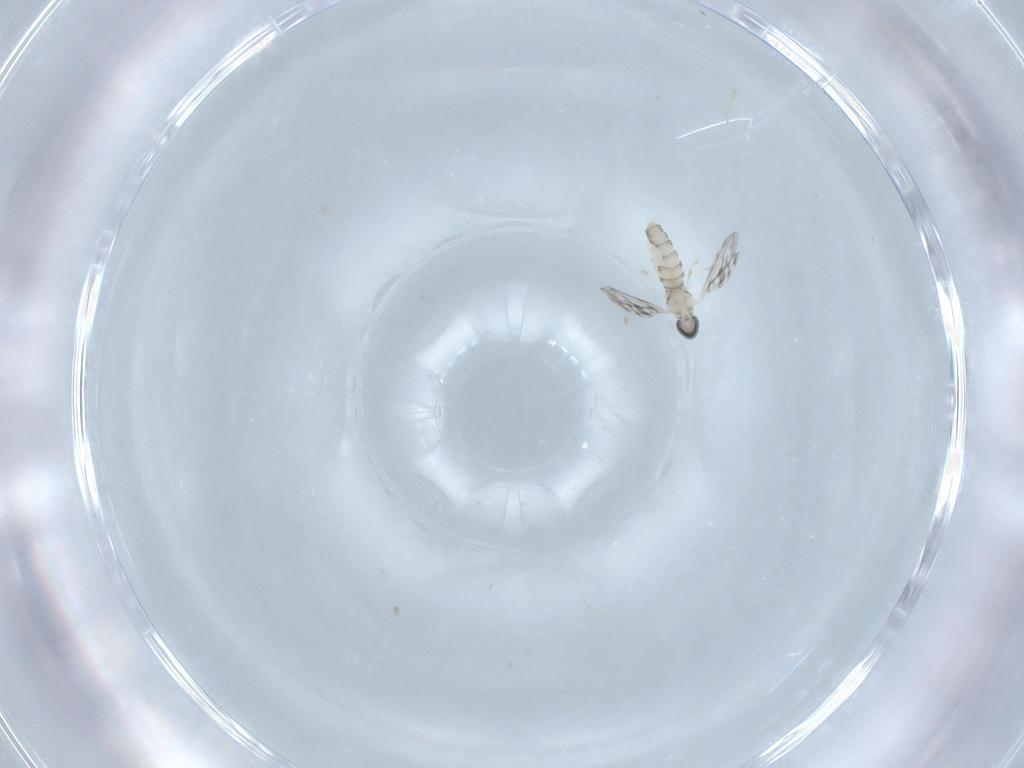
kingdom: Animalia
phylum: Arthropoda
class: Insecta
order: Diptera
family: Cecidomyiidae
